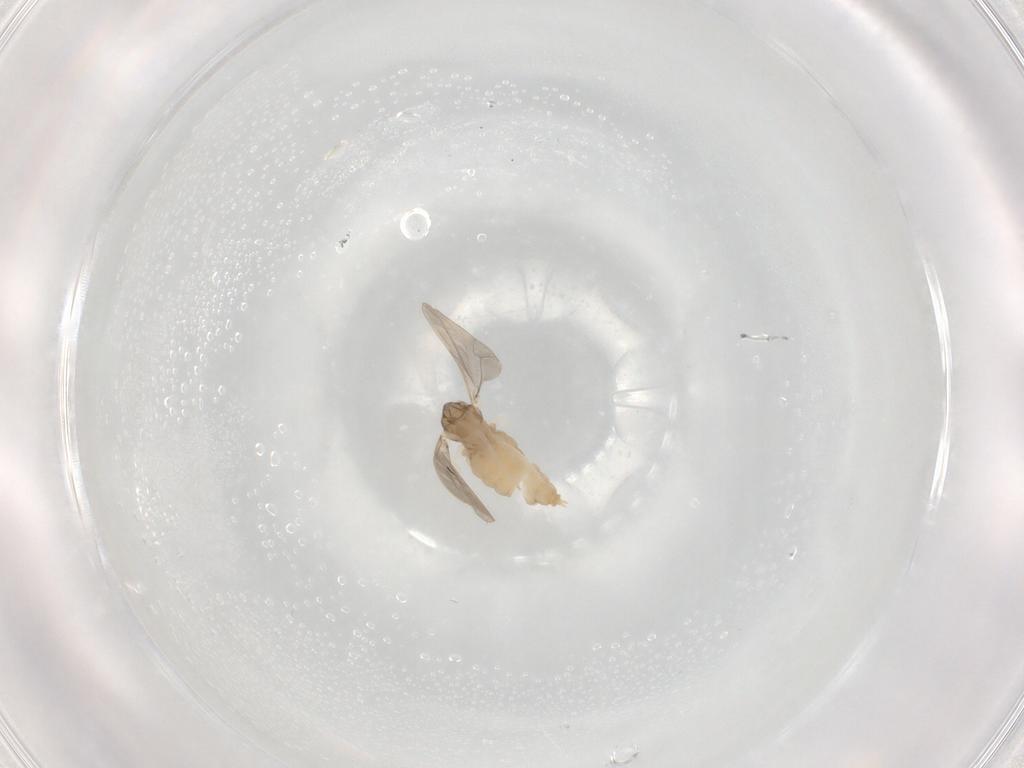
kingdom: Animalia
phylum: Arthropoda
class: Insecta
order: Diptera
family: Cecidomyiidae
